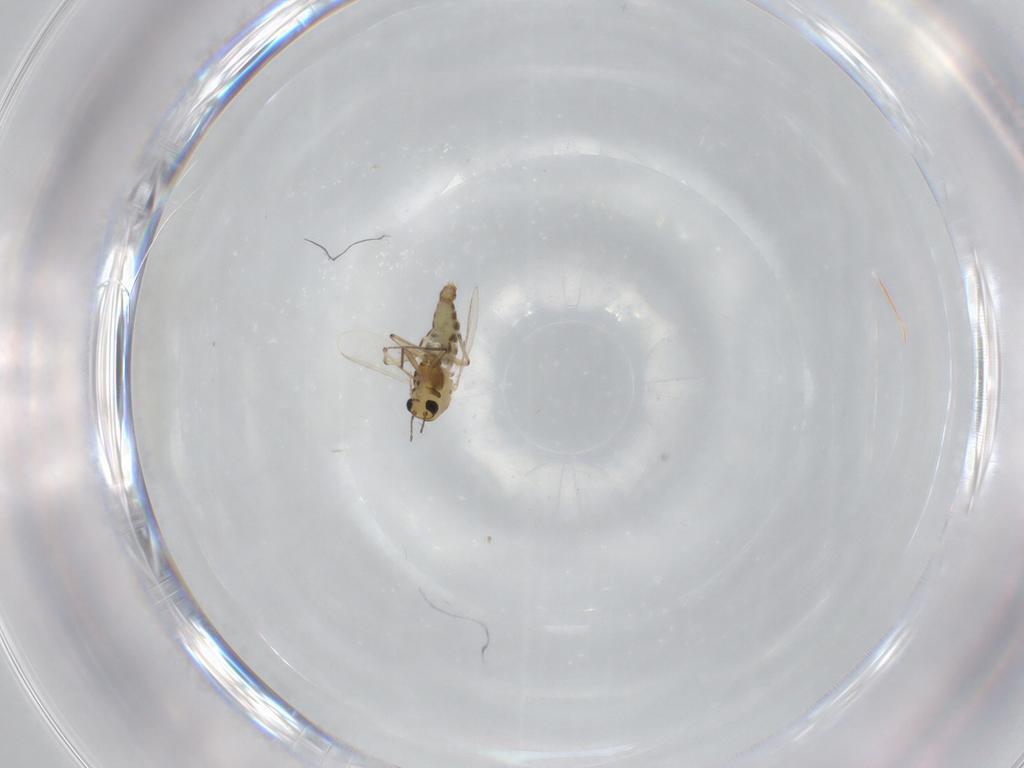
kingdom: Animalia
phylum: Arthropoda
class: Insecta
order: Diptera
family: Chironomidae
